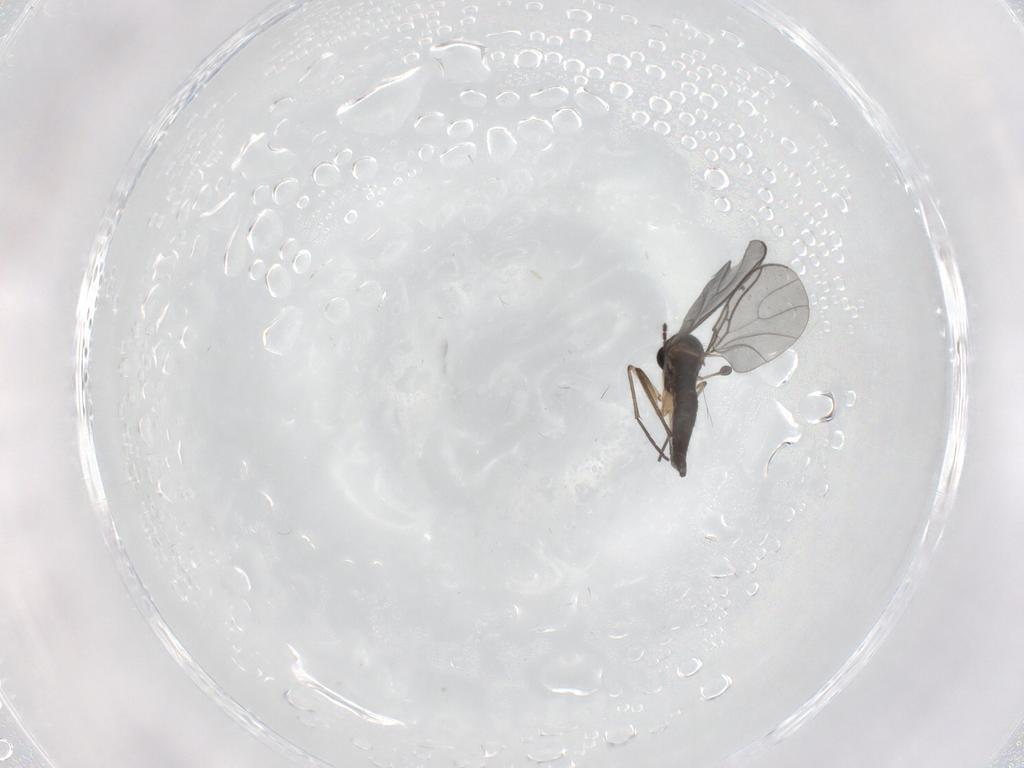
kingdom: Animalia
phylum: Arthropoda
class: Insecta
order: Diptera
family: Sciaridae
